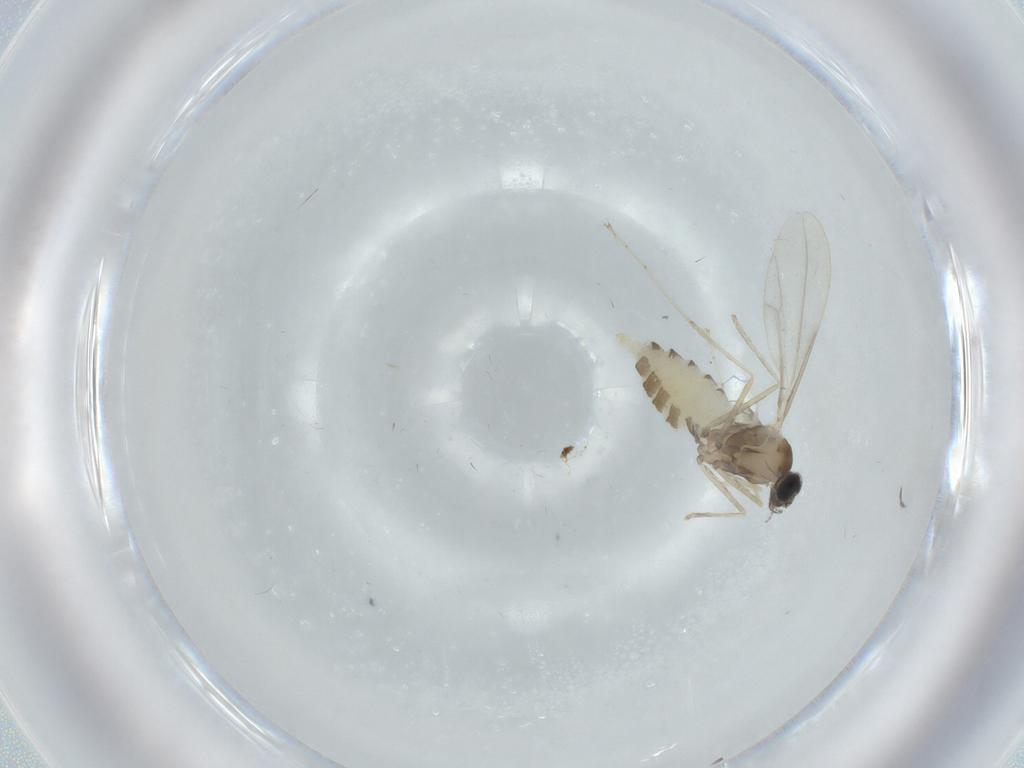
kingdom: Animalia
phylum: Arthropoda
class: Insecta
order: Diptera
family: Cecidomyiidae
